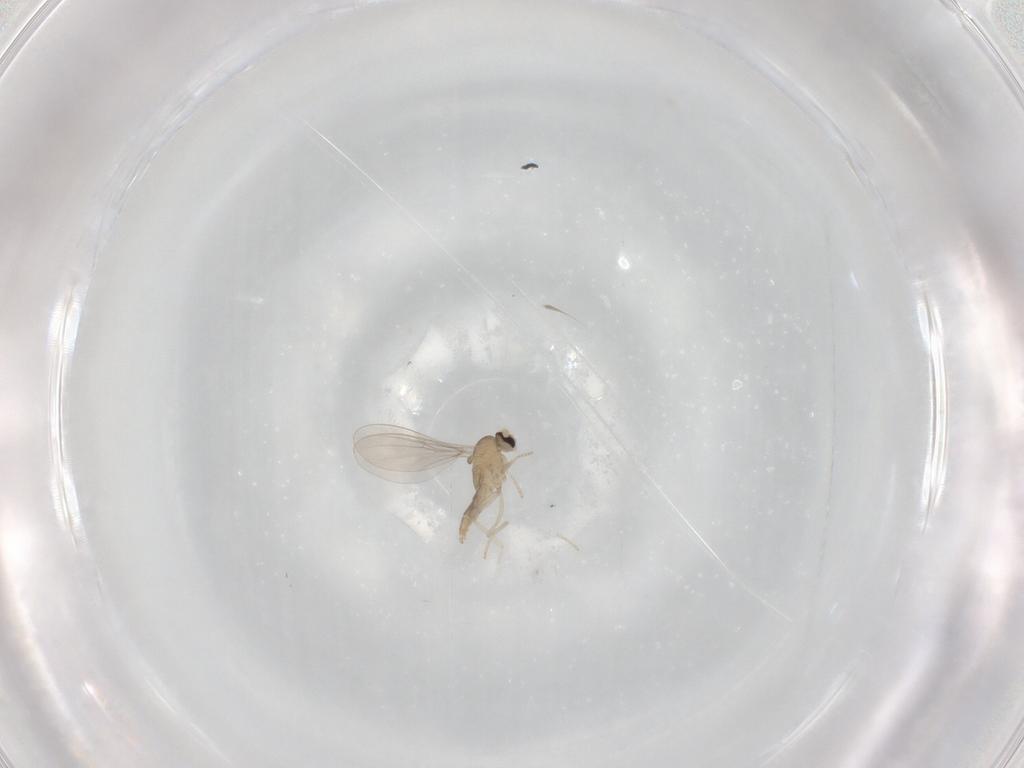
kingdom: Animalia
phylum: Arthropoda
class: Insecta
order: Diptera
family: Cecidomyiidae
